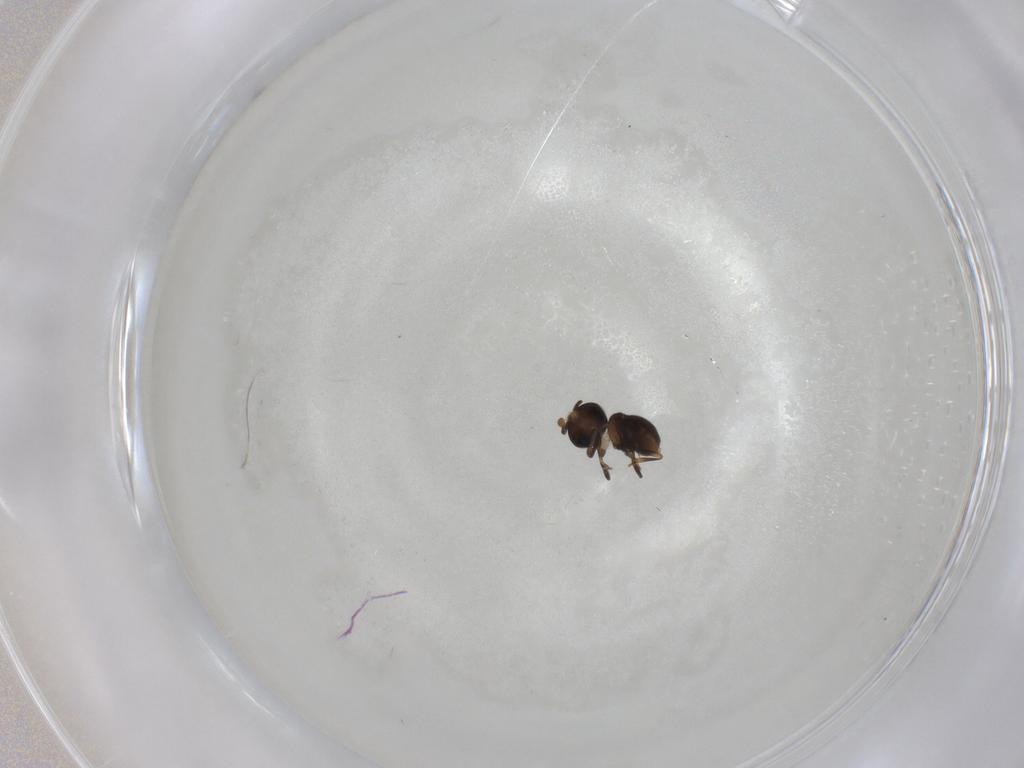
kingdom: Animalia
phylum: Arthropoda
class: Insecta
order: Hymenoptera
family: Scelionidae
